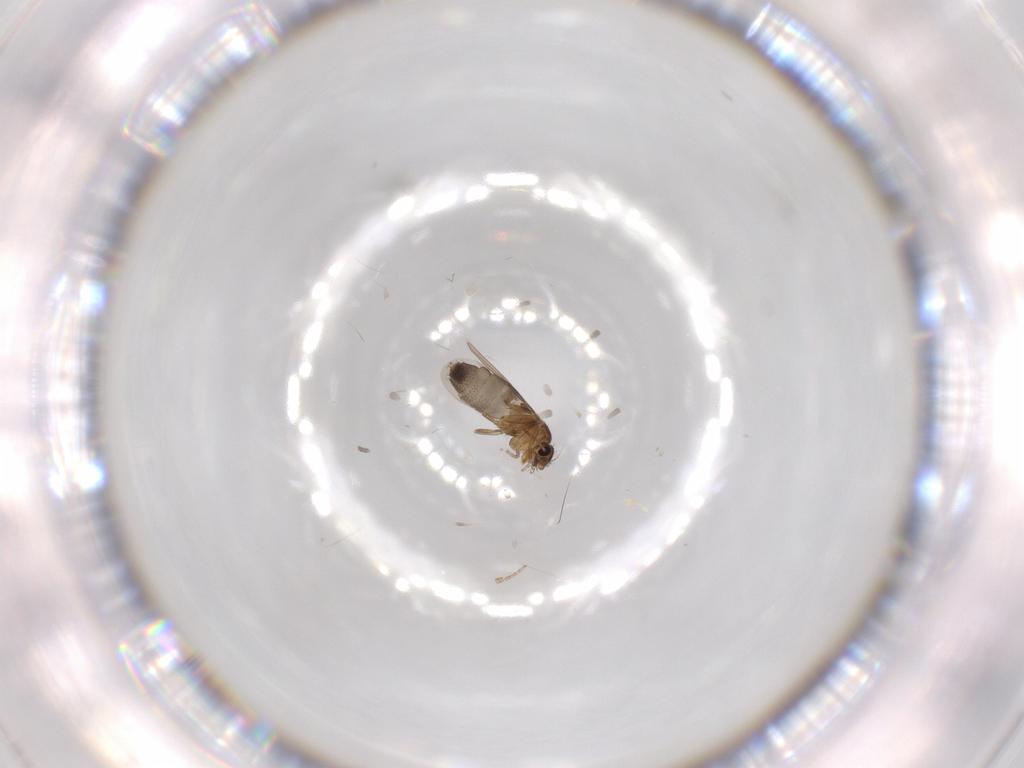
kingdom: Animalia
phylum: Arthropoda
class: Insecta
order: Diptera
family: Phoridae
